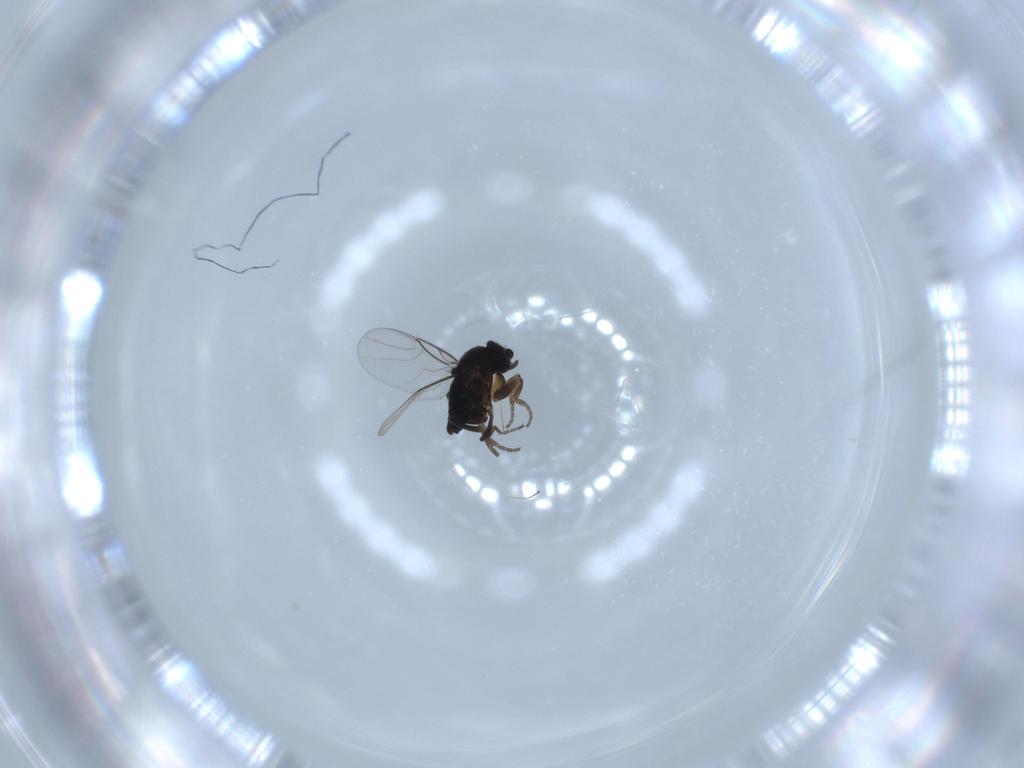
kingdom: Animalia
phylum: Arthropoda
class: Insecta
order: Diptera
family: Phoridae
